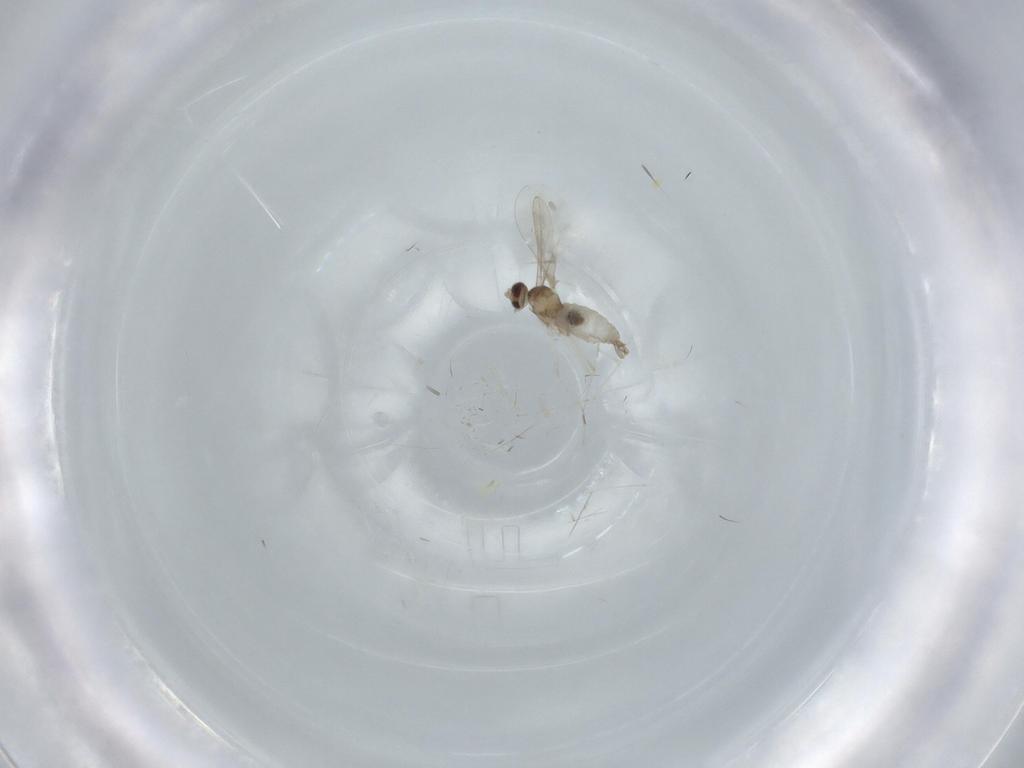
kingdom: Animalia
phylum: Arthropoda
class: Insecta
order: Diptera
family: Cecidomyiidae
